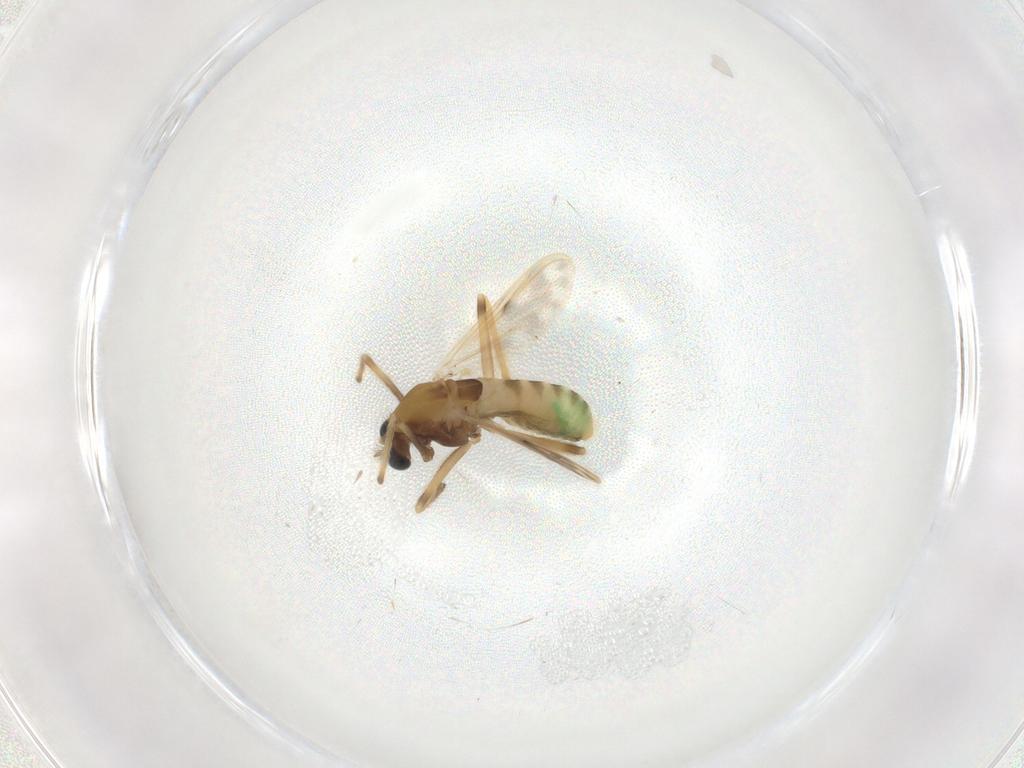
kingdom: Animalia
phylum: Arthropoda
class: Insecta
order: Diptera
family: Chironomidae
